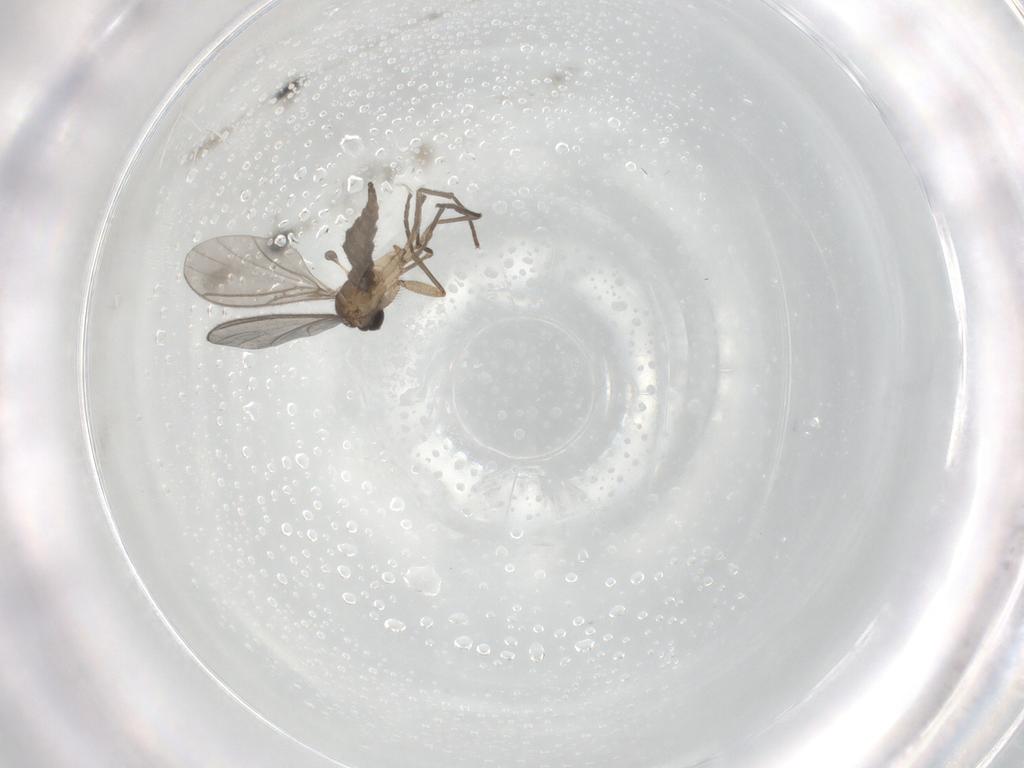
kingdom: Animalia
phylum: Arthropoda
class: Insecta
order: Diptera
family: Sciaridae
